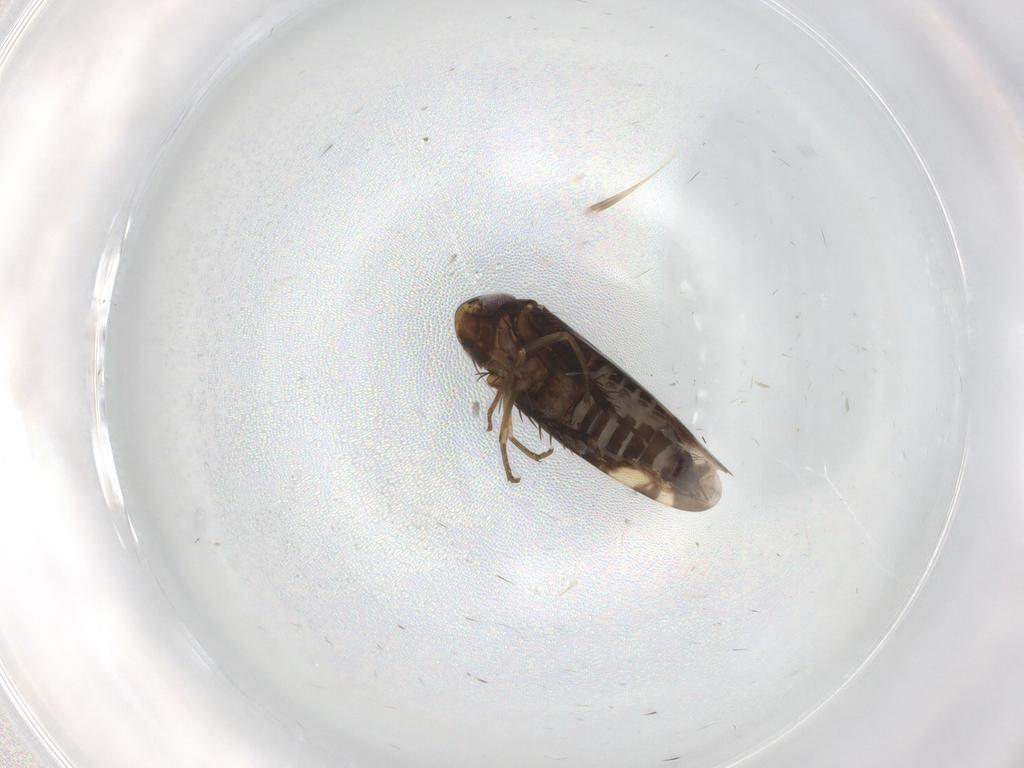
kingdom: Animalia
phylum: Arthropoda
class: Insecta
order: Hemiptera
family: Cicadellidae
